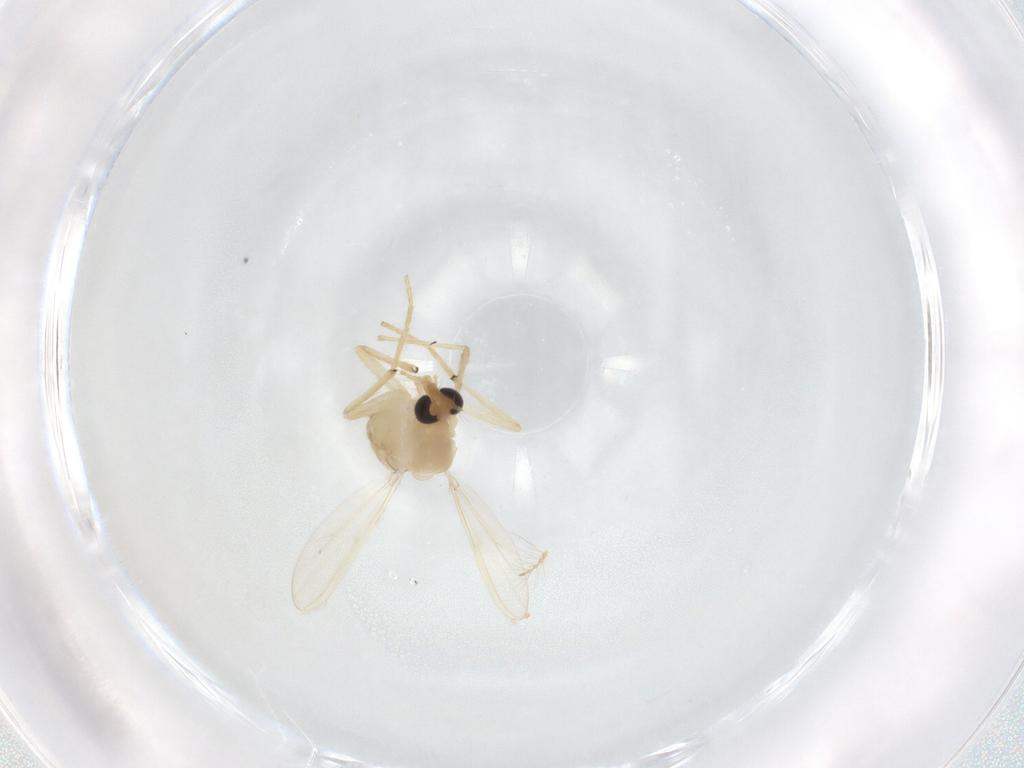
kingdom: Animalia
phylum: Arthropoda
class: Insecta
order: Diptera
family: Chironomidae
